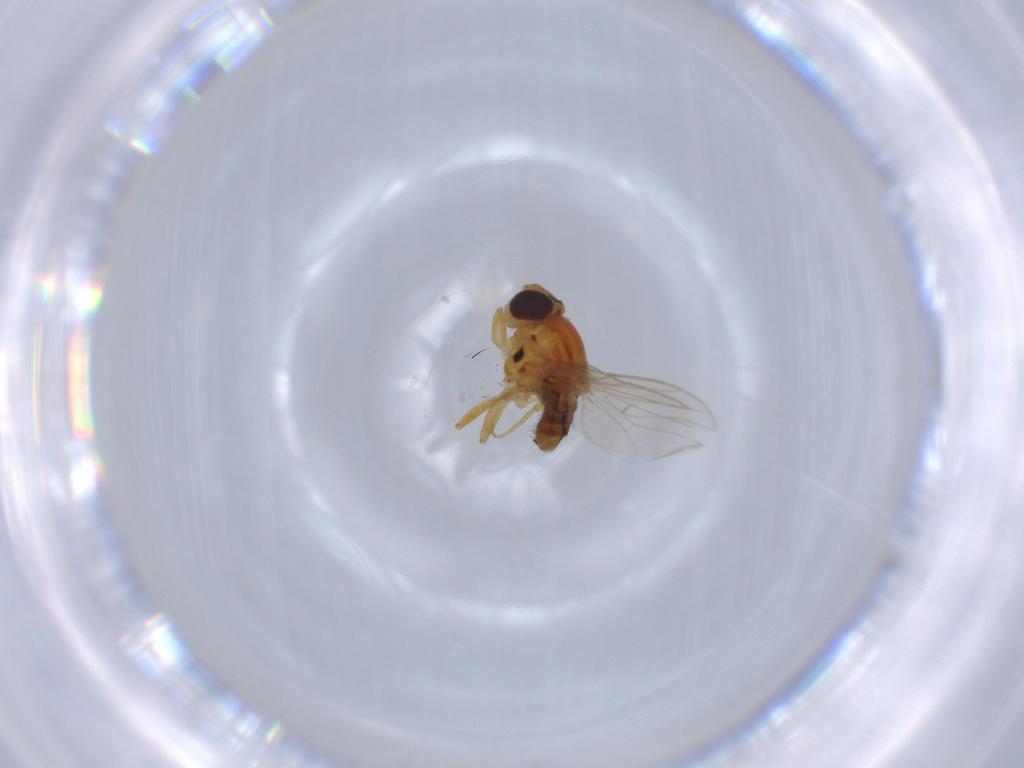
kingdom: Animalia
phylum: Arthropoda
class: Insecta
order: Diptera
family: Chloropidae
